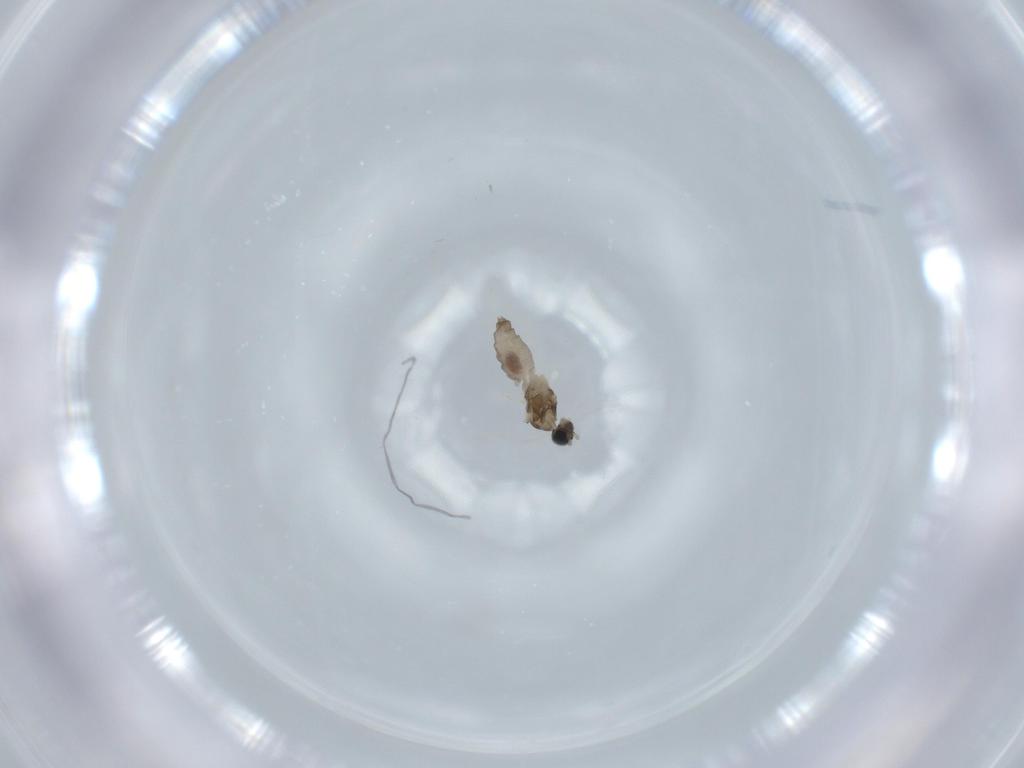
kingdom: Animalia
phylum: Arthropoda
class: Insecta
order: Diptera
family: Cecidomyiidae
